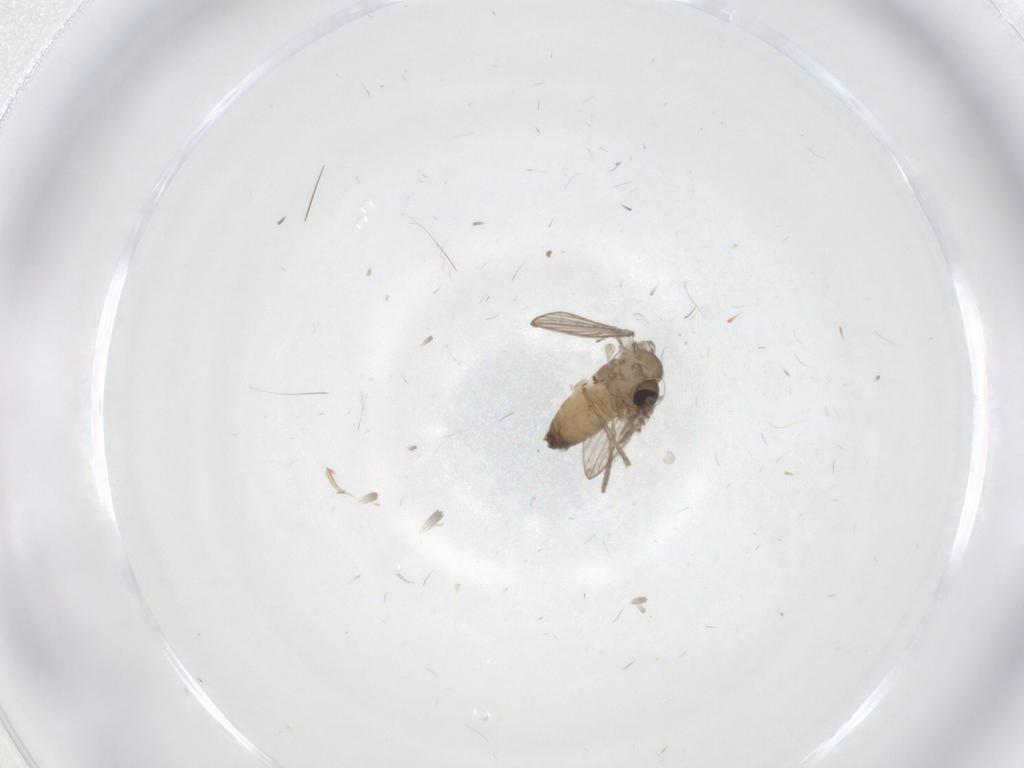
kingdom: Animalia
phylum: Arthropoda
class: Insecta
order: Diptera
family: Psychodidae
